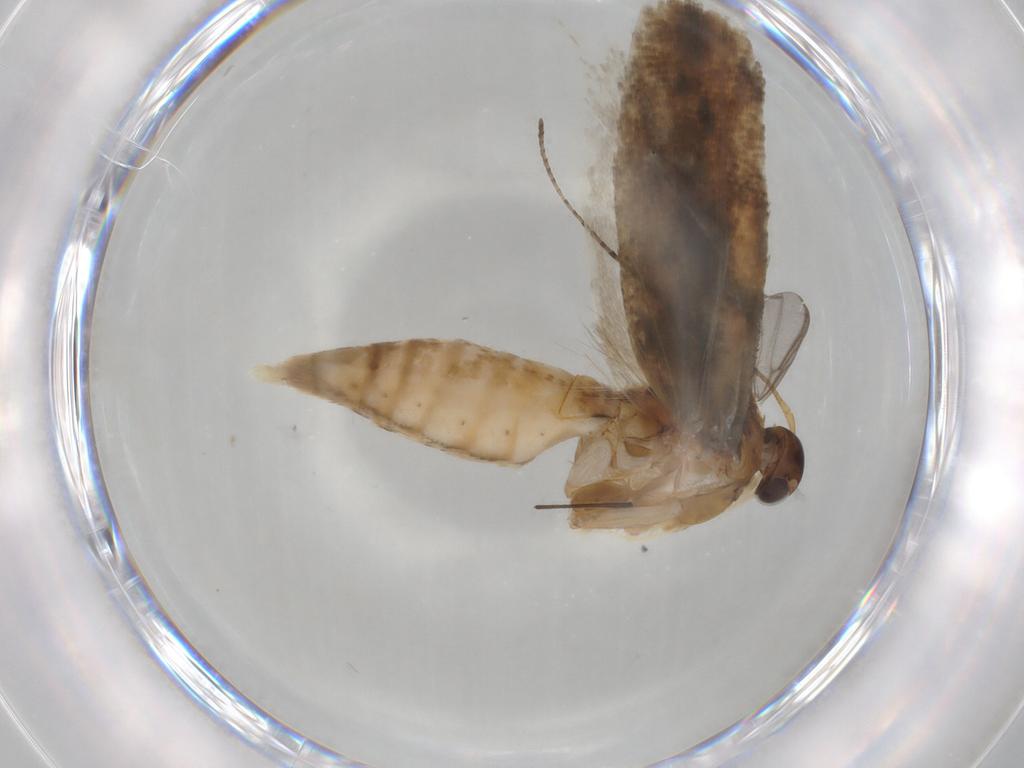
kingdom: Animalia
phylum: Arthropoda
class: Insecta
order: Lepidoptera
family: Gelechiidae
